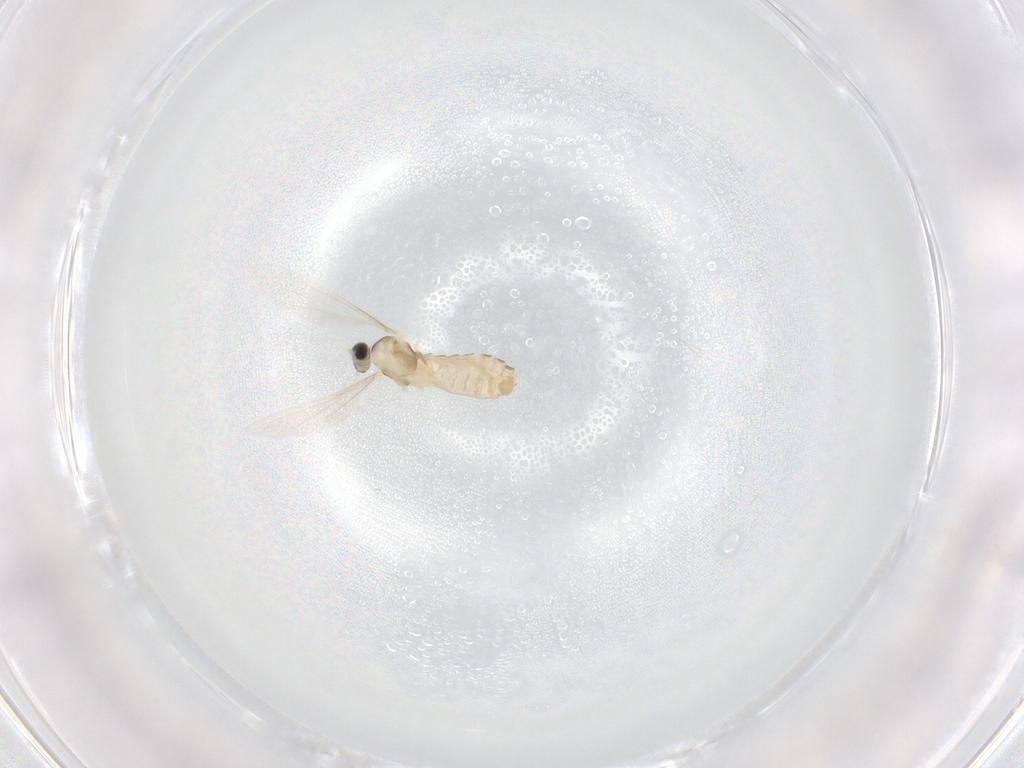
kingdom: Animalia
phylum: Arthropoda
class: Insecta
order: Diptera
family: Cecidomyiidae
